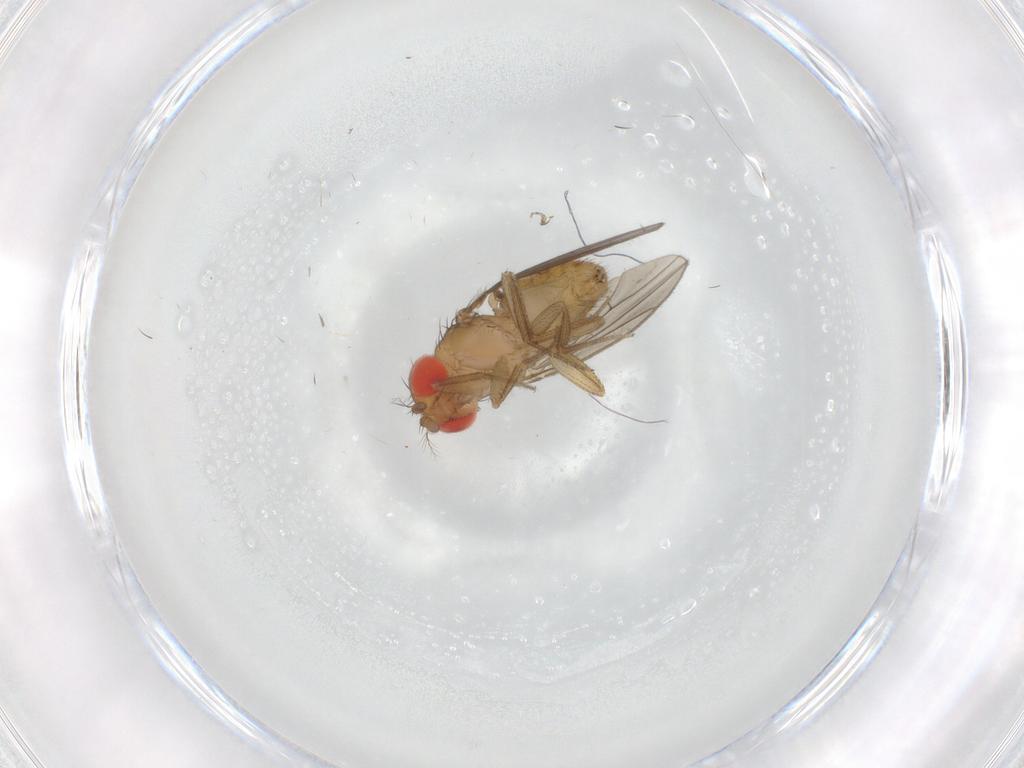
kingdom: Animalia
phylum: Arthropoda
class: Insecta
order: Diptera
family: Drosophilidae
